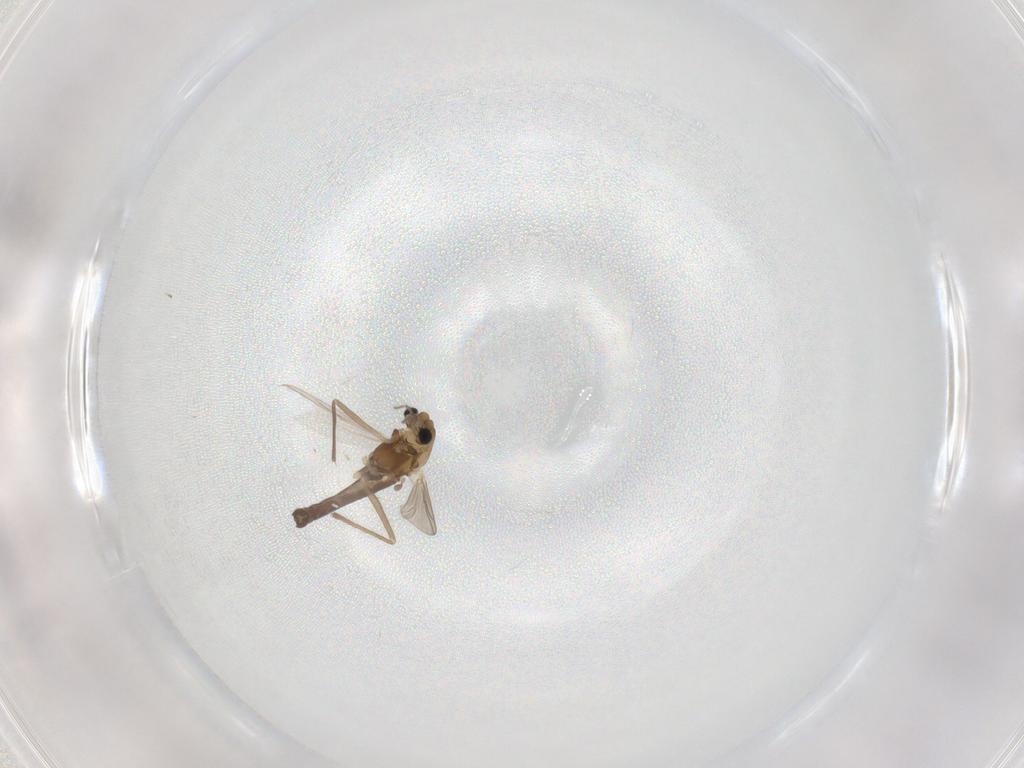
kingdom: Animalia
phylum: Arthropoda
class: Insecta
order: Diptera
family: Chironomidae
